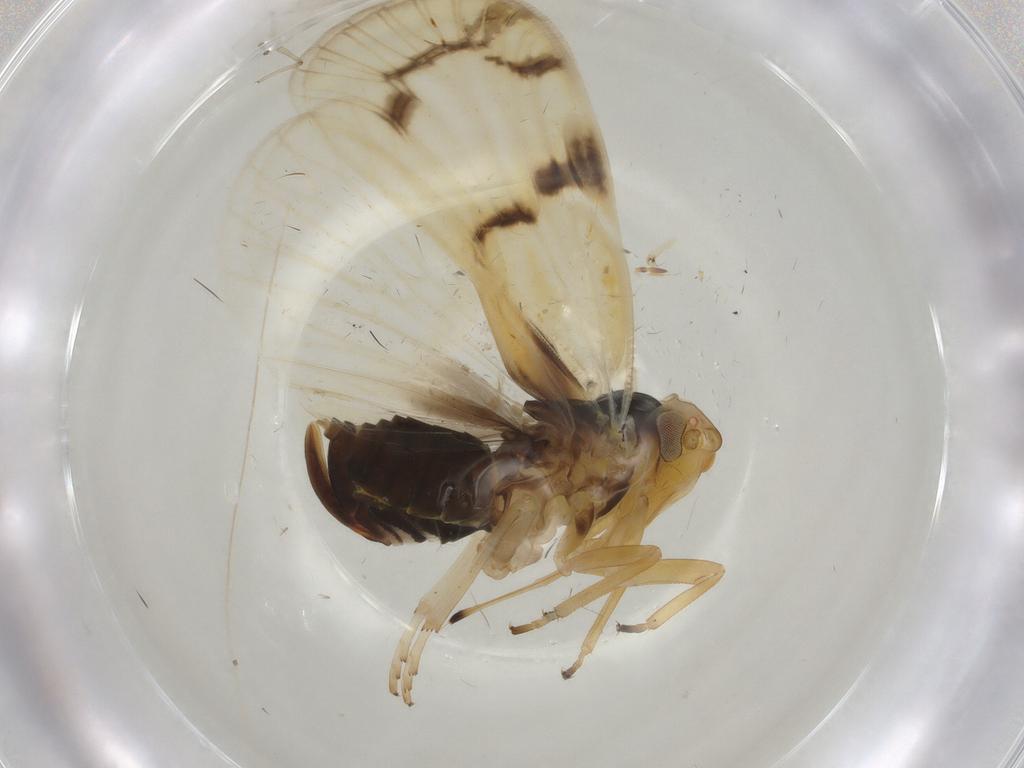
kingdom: Animalia
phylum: Arthropoda
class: Insecta
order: Hemiptera
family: Cixiidae
